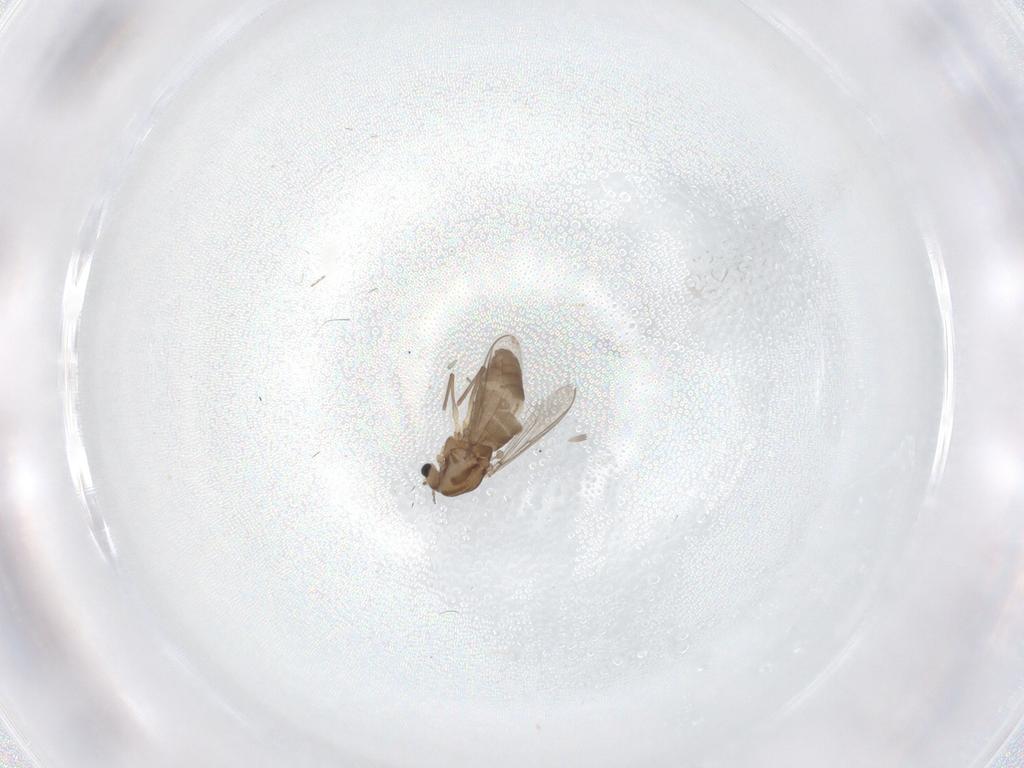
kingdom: Animalia
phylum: Arthropoda
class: Insecta
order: Diptera
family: Chironomidae
